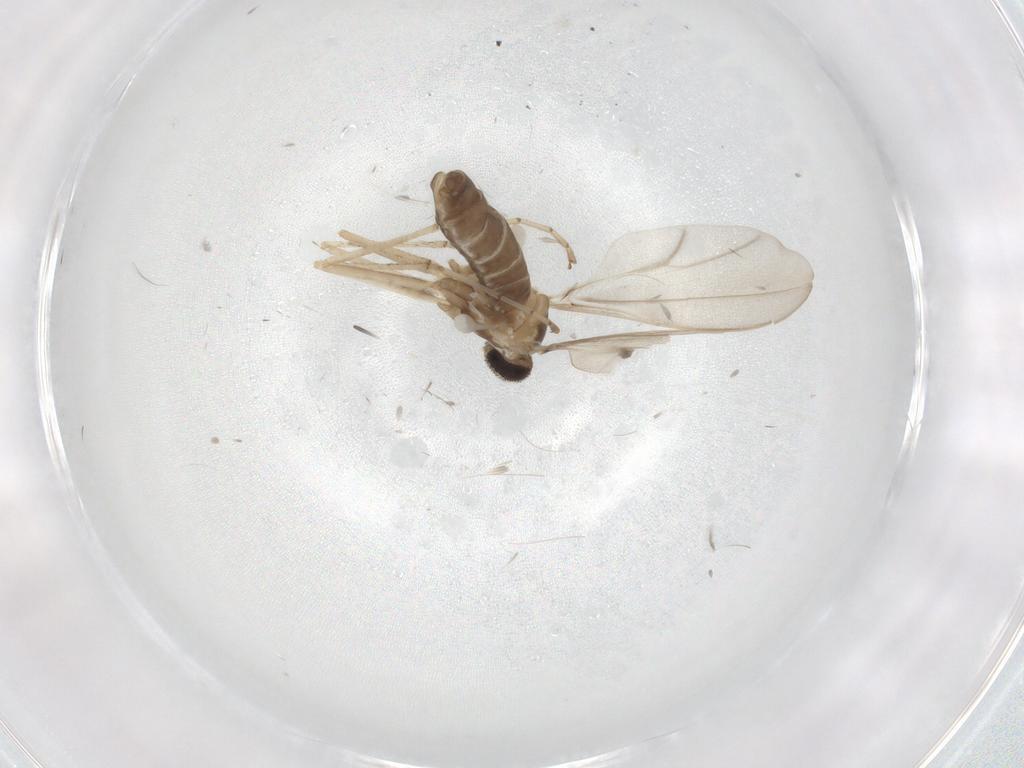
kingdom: Animalia
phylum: Arthropoda
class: Insecta
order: Diptera
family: Cecidomyiidae
